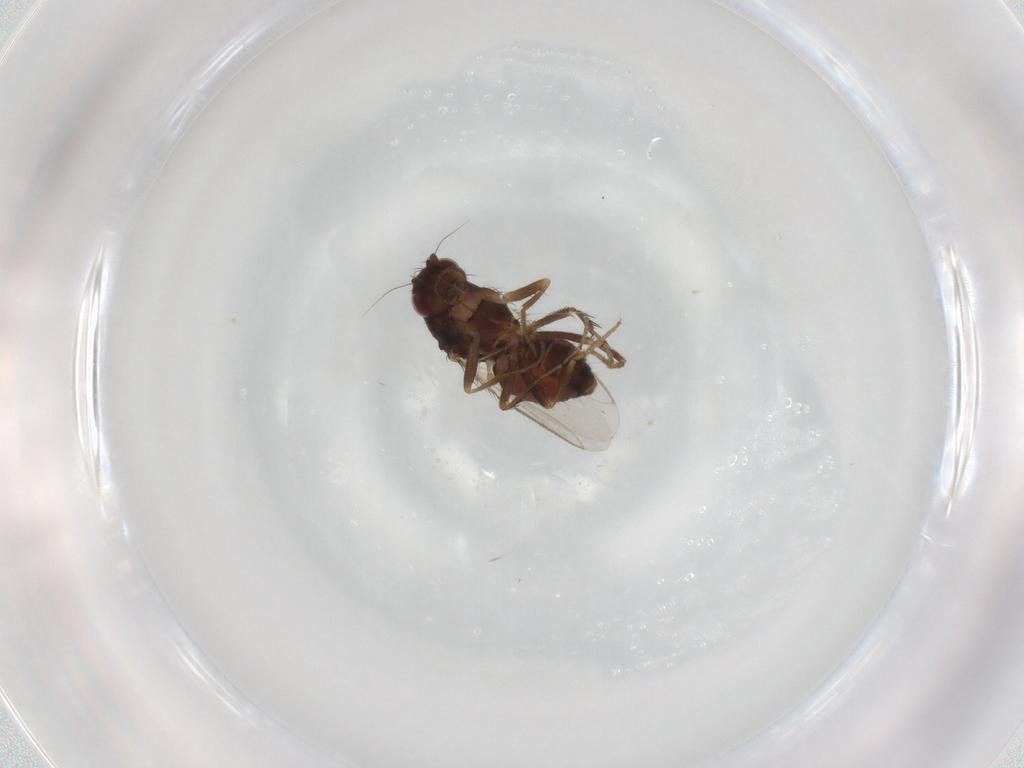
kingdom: Animalia
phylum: Arthropoda
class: Insecta
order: Diptera
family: Sphaeroceridae
